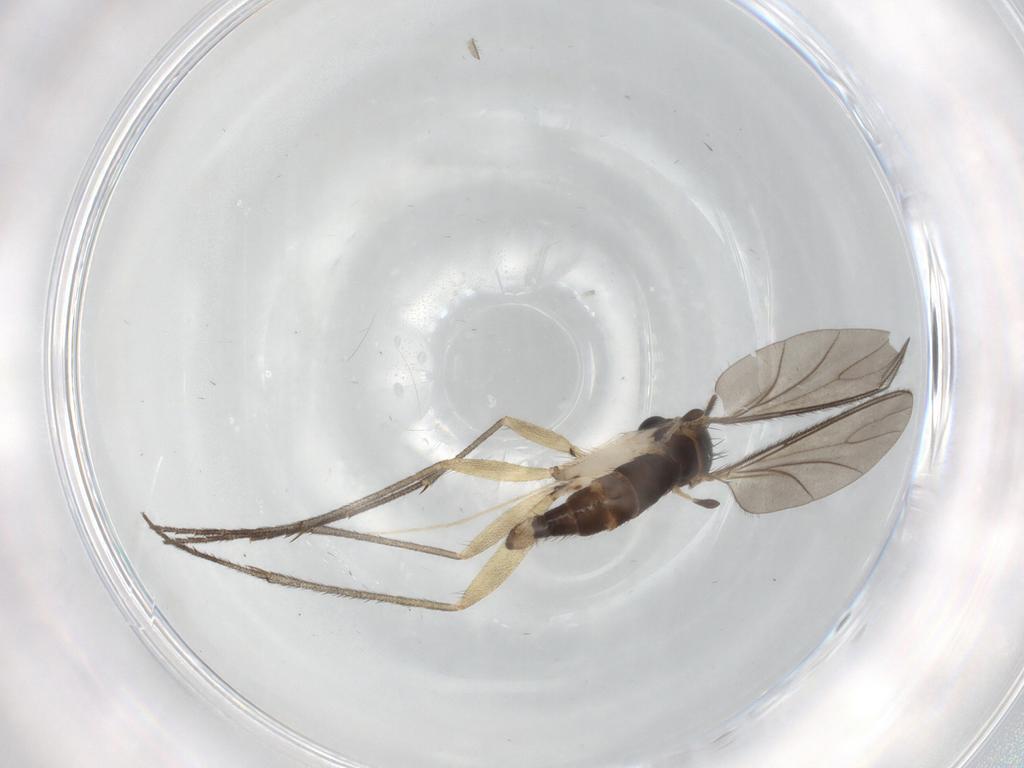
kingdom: Animalia
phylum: Arthropoda
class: Insecta
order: Diptera
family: Sciaridae
